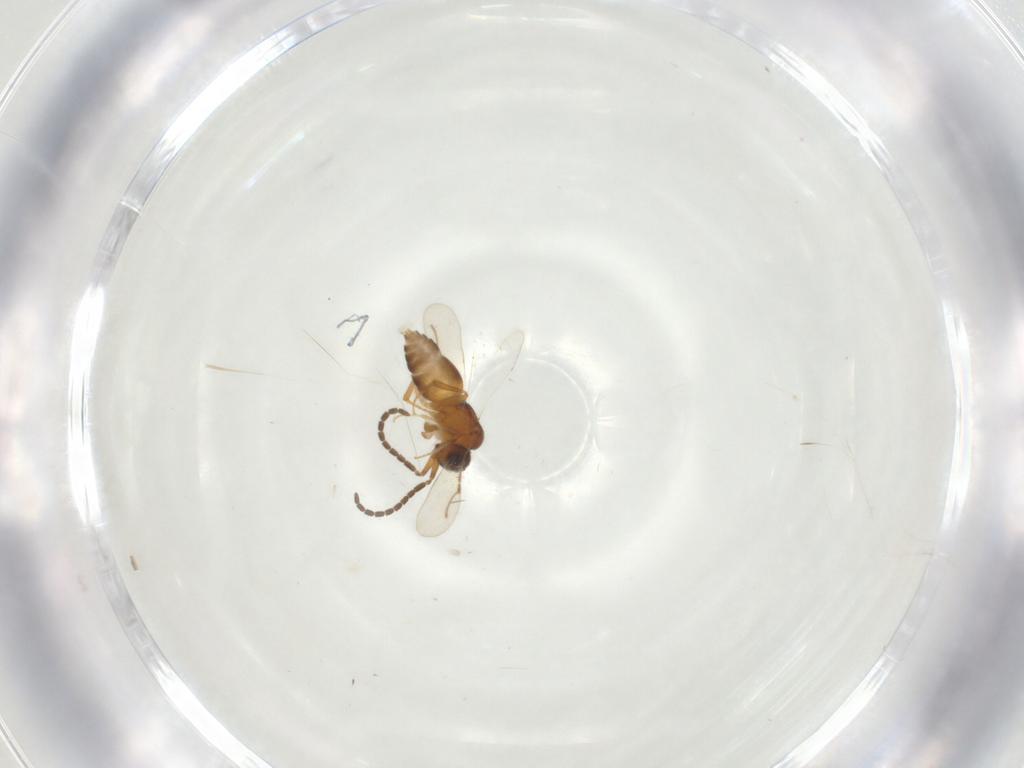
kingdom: Animalia
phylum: Arthropoda
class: Insecta
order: Hymenoptera
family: Bethylidae
